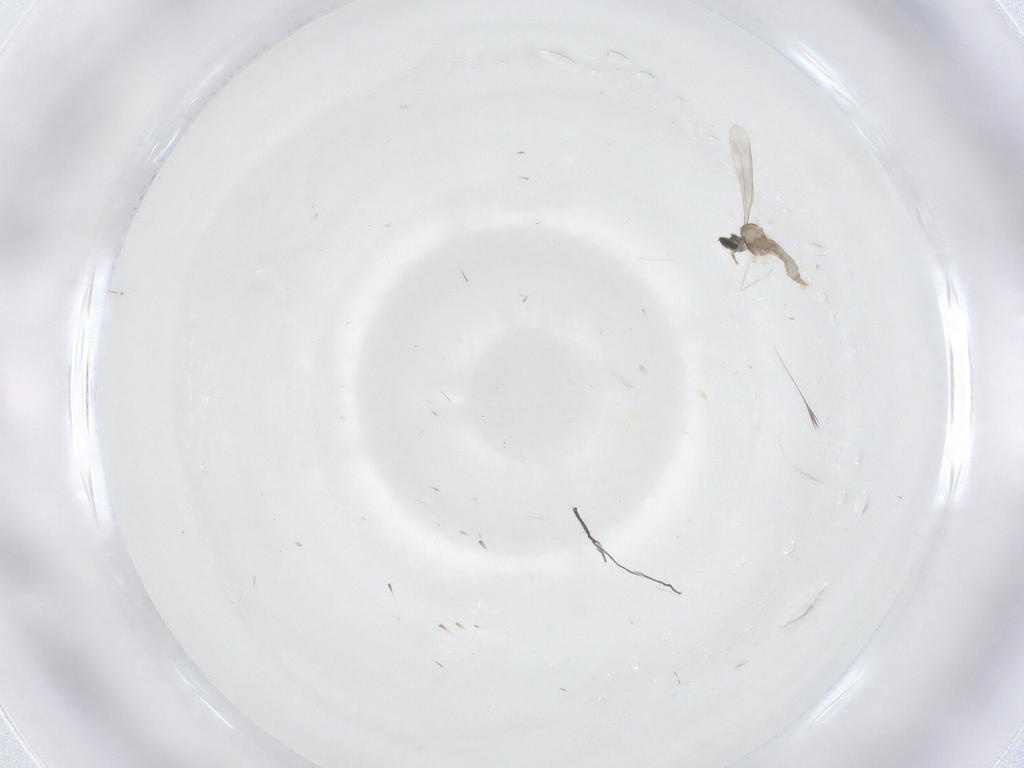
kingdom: Animalia
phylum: Arthropoda
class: Insecta
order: Diptera
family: Cecidomyiidae
